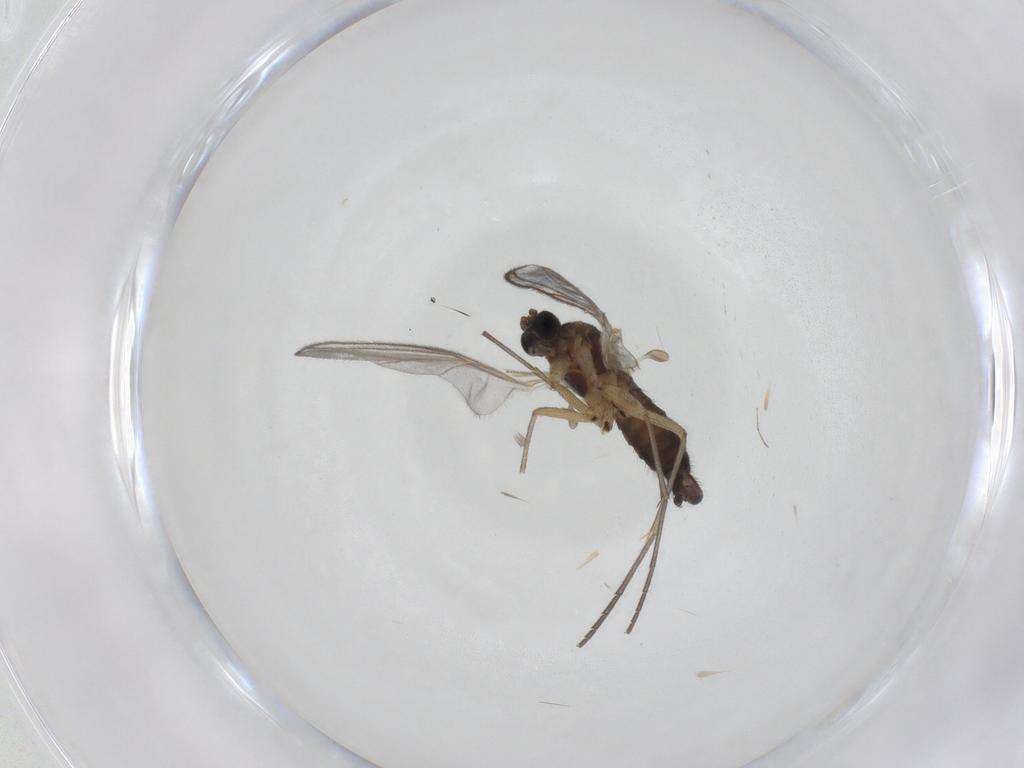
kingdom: Animalia
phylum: Arthropoda
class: Insecta
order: Diptera
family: Sciaridae
